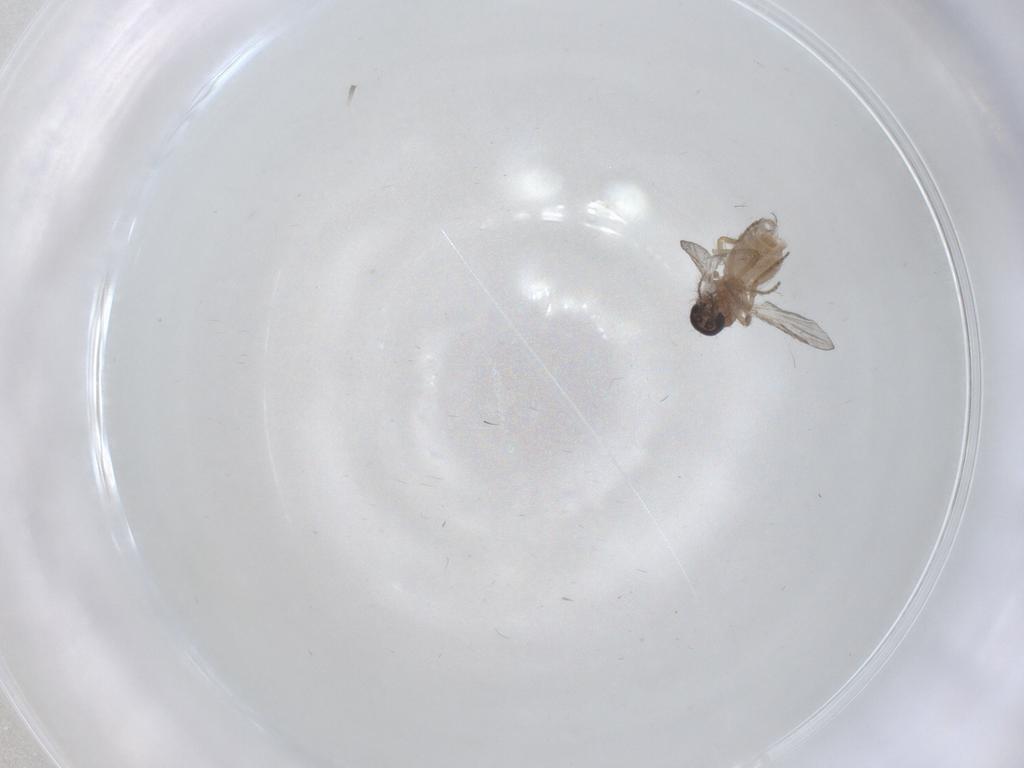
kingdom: Animalia
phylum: Arthropoda
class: Insecta
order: Diptera
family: Ceratopogonidae
